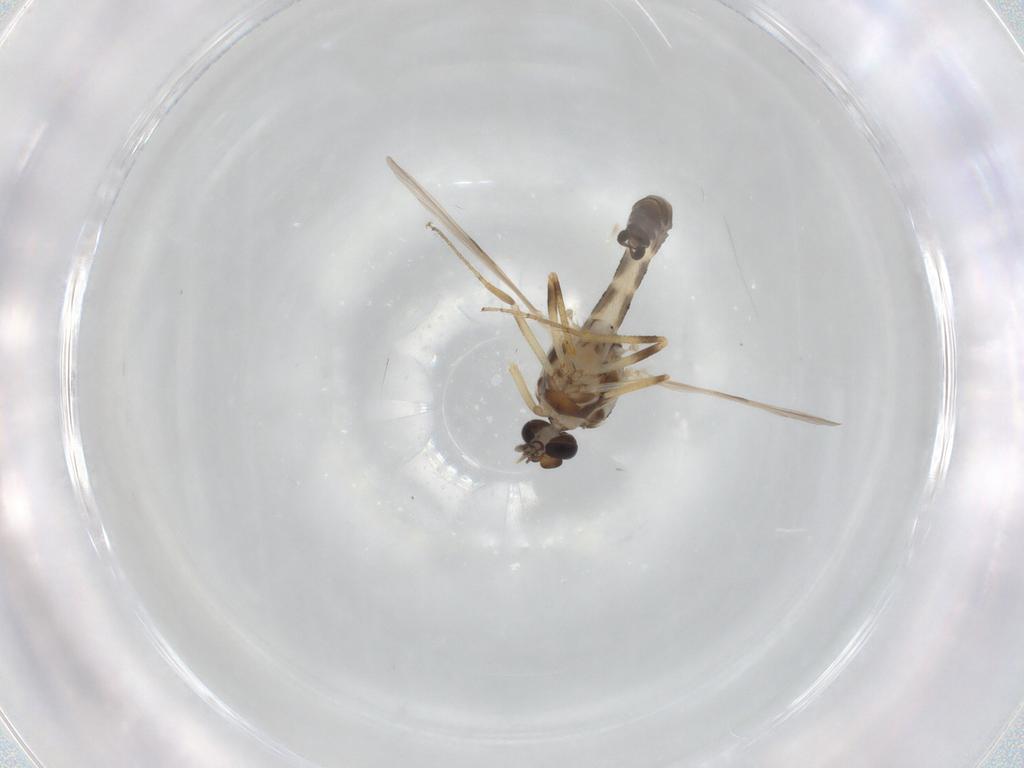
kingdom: Animalia
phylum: Arthropoda
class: Insecta
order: Diptera
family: Ceratopogonidae
